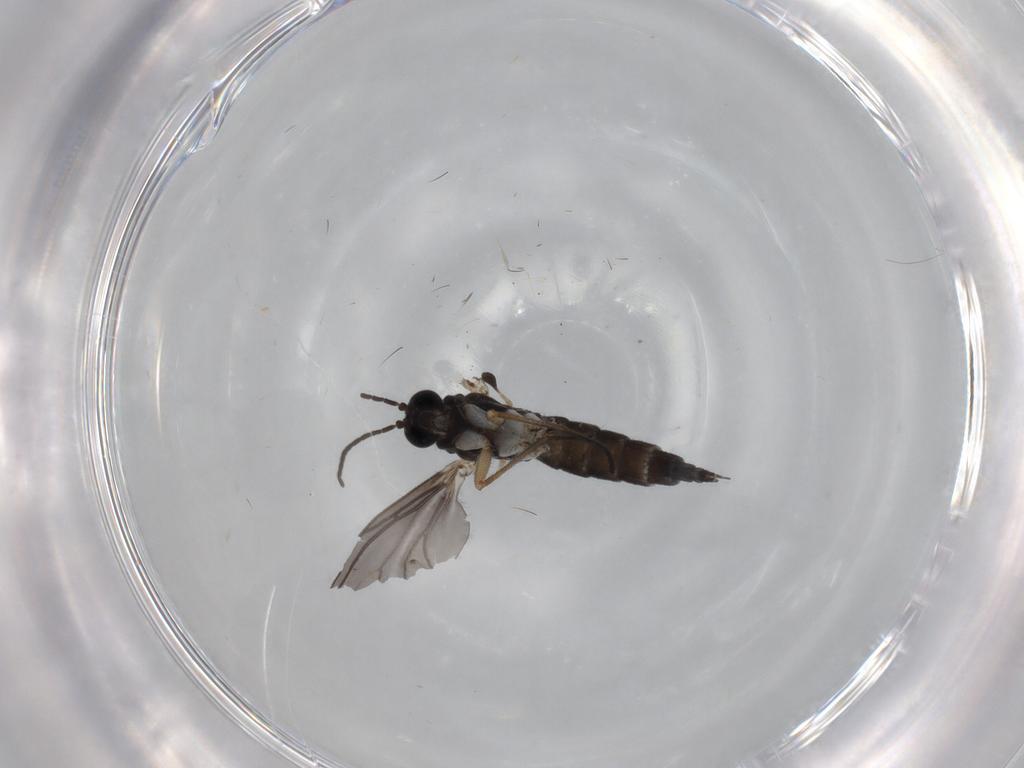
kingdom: Animalia
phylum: Arthropoda
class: Insecta
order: Diptera
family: Sciaridae
